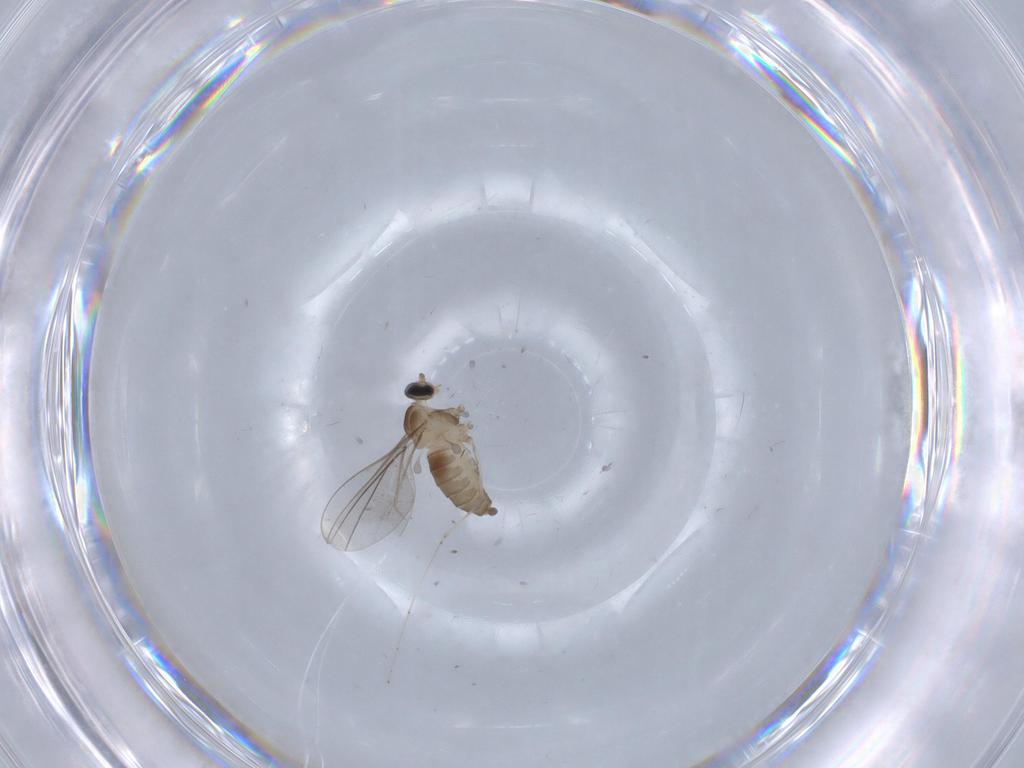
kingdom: Animalia
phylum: Arthropoda
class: Insecta
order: Diptera
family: Cecidomyiidae
